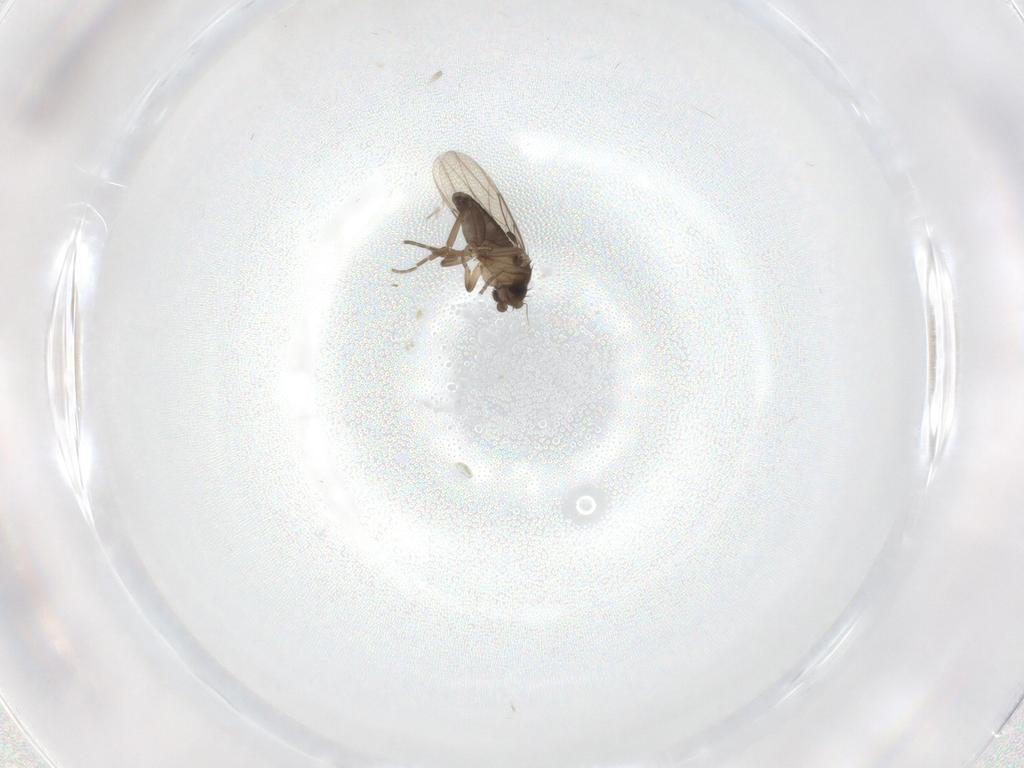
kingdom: Animalia
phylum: Arthropoda
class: Insecta
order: Diptera
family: Phoridae
